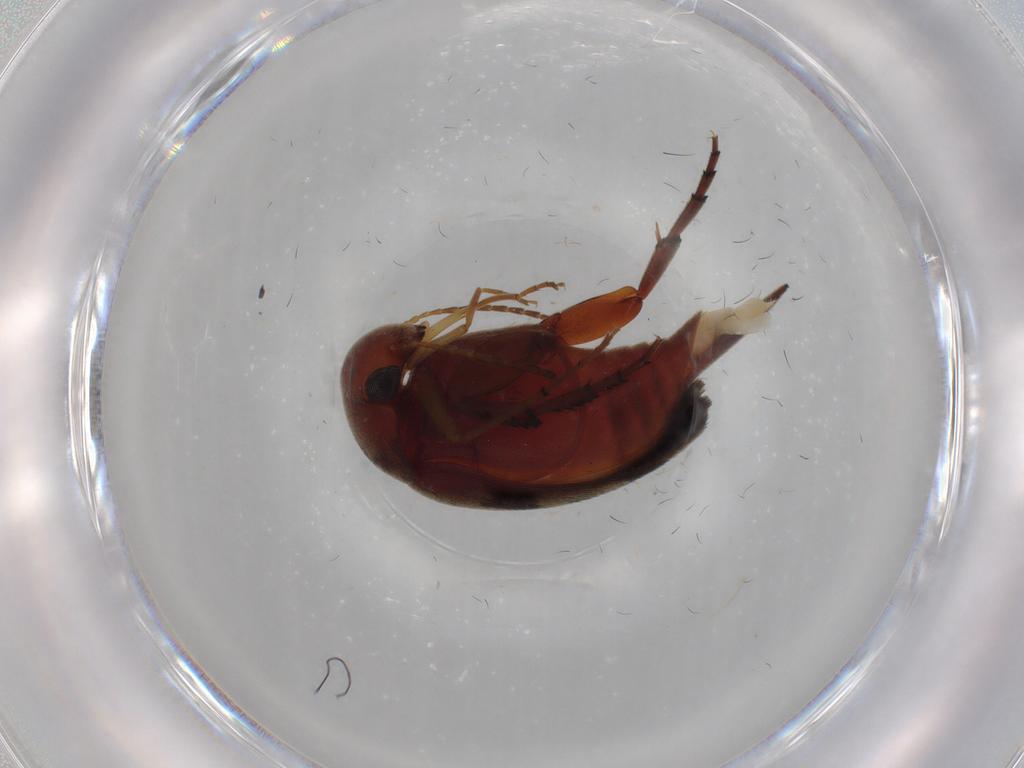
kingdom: Animalia
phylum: Arthropoda
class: Insecta
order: Coleoptera
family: Mordellidae
